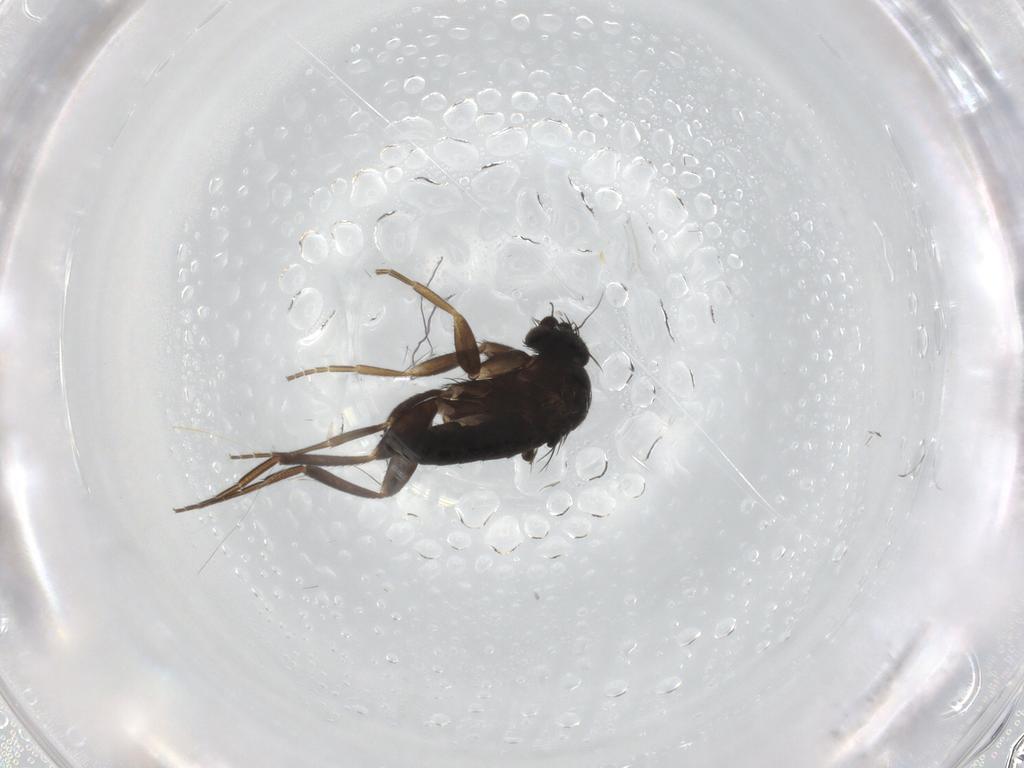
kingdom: Animalia
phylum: Arthropoda
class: Insecta
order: Diptera
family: Phoridae
